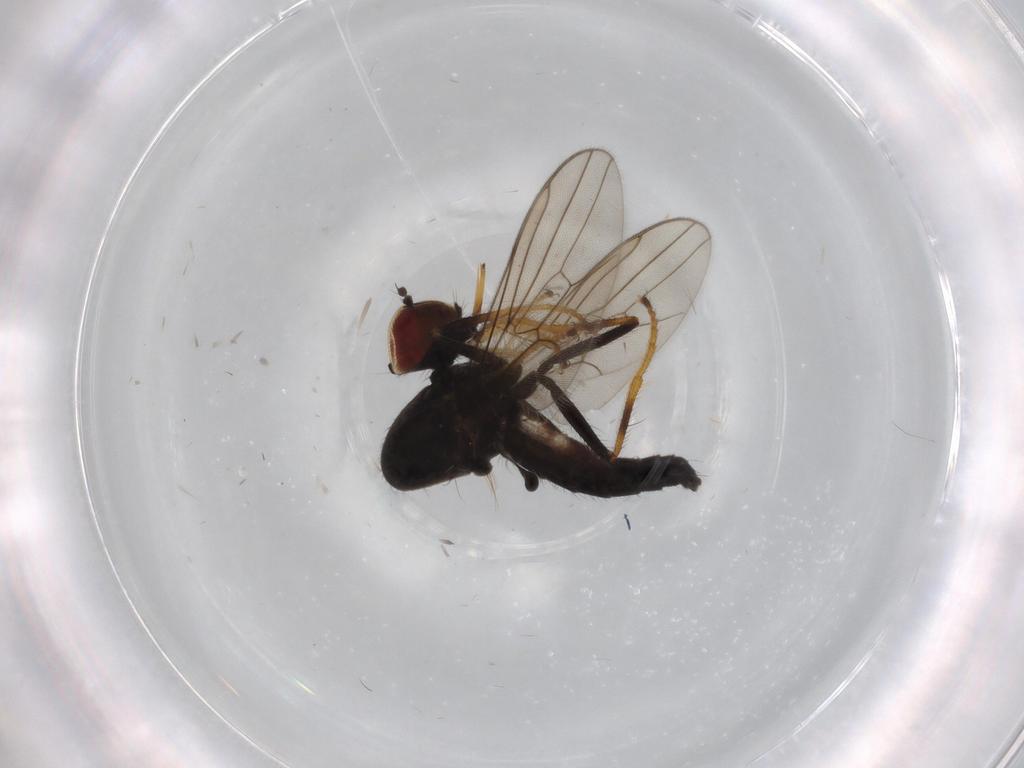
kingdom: Animalia
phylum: Arthropoda
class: Insecta
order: Diptera
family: Hybotidae
